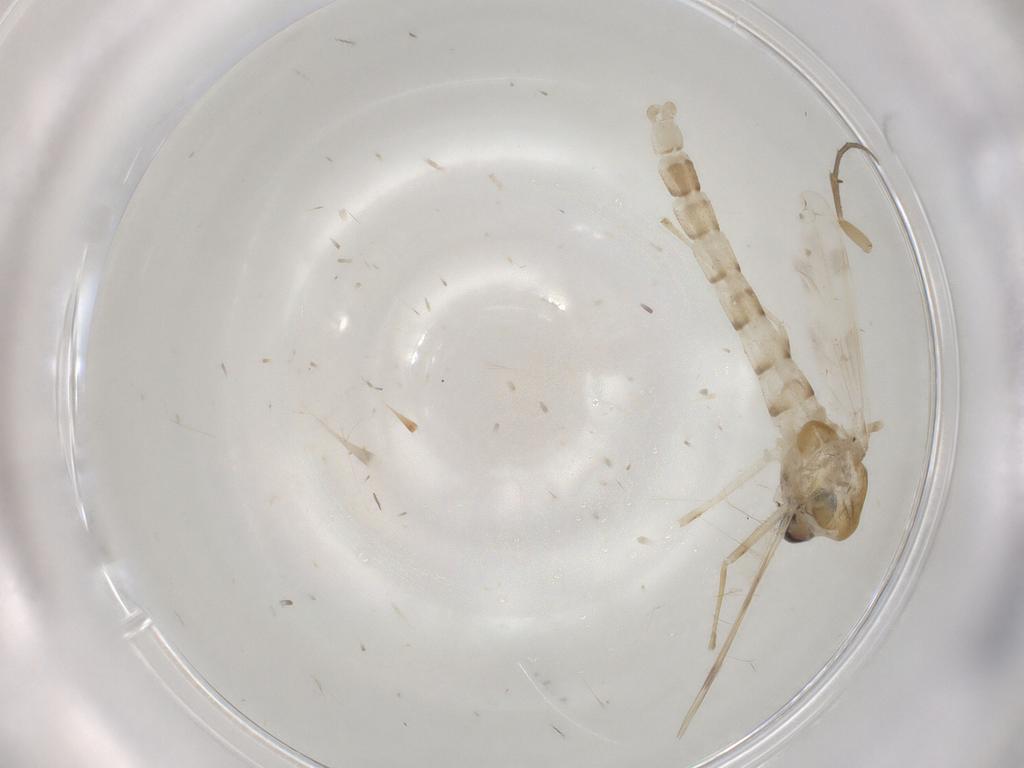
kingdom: Animalia
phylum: Arthropoda
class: Insecta
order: Diptera
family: Chironomidae
